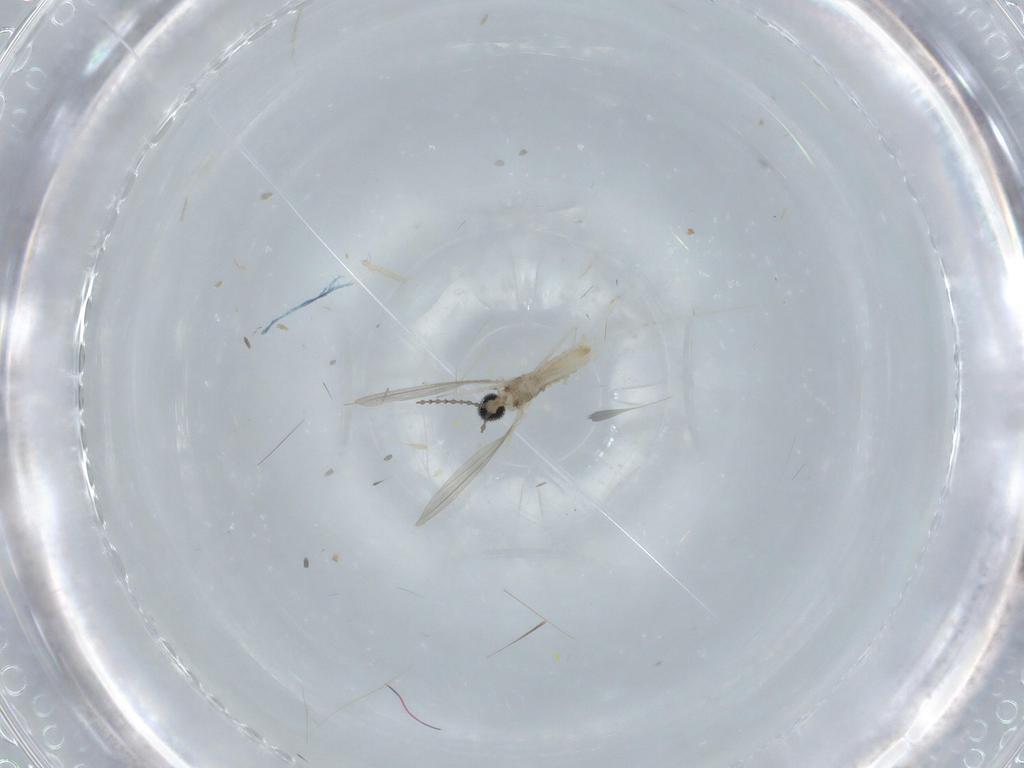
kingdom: Animalia
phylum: Arthropoda
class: Insecta
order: Diptera
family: Cecidomyiidae
